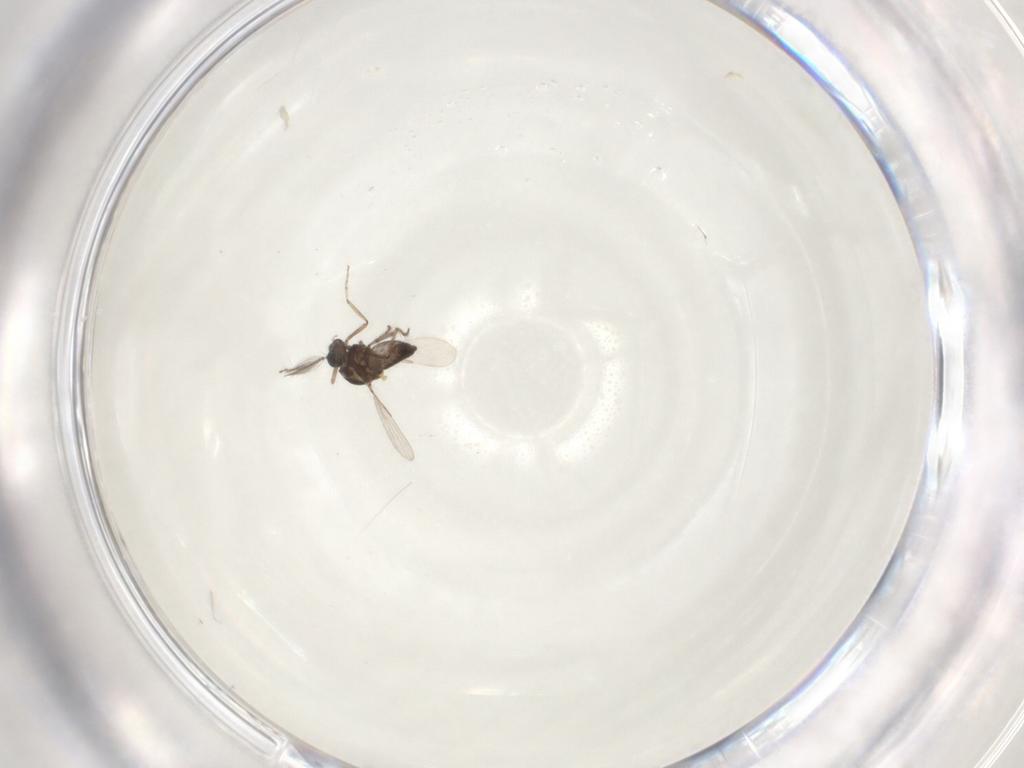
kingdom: Animalia
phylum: Arthropoda
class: Insecta
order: Diptera
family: Ceratopogonidae
